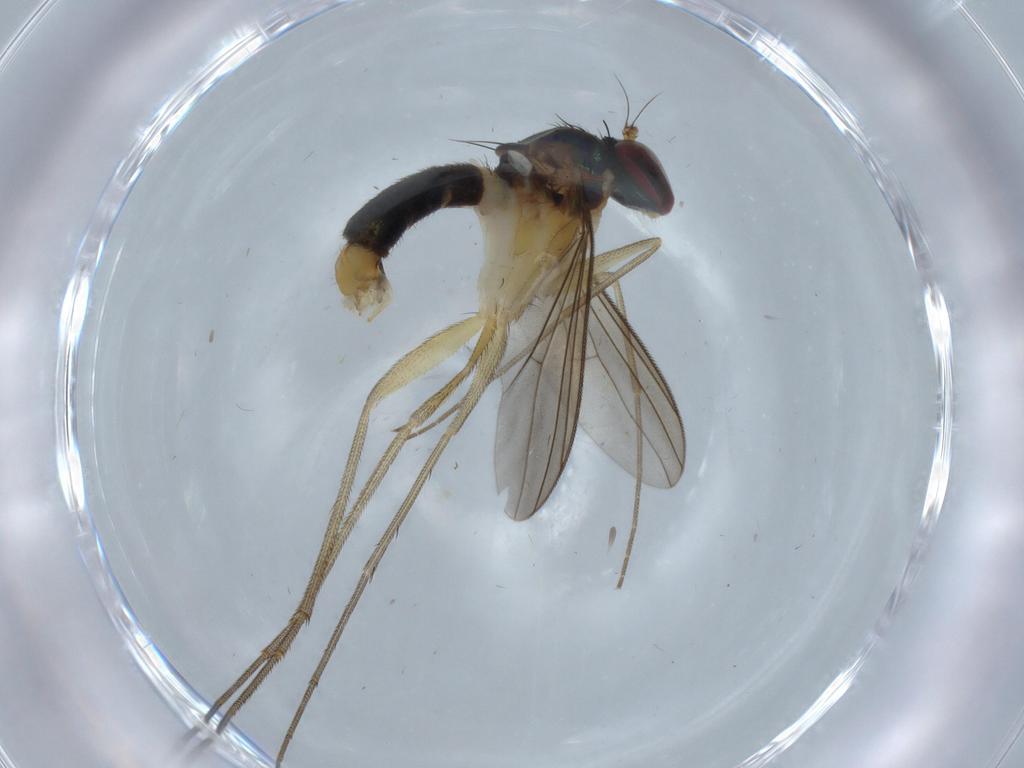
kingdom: Animalia
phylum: Arthropoda
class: Insecta
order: Diptera
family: Dolichopodidae
